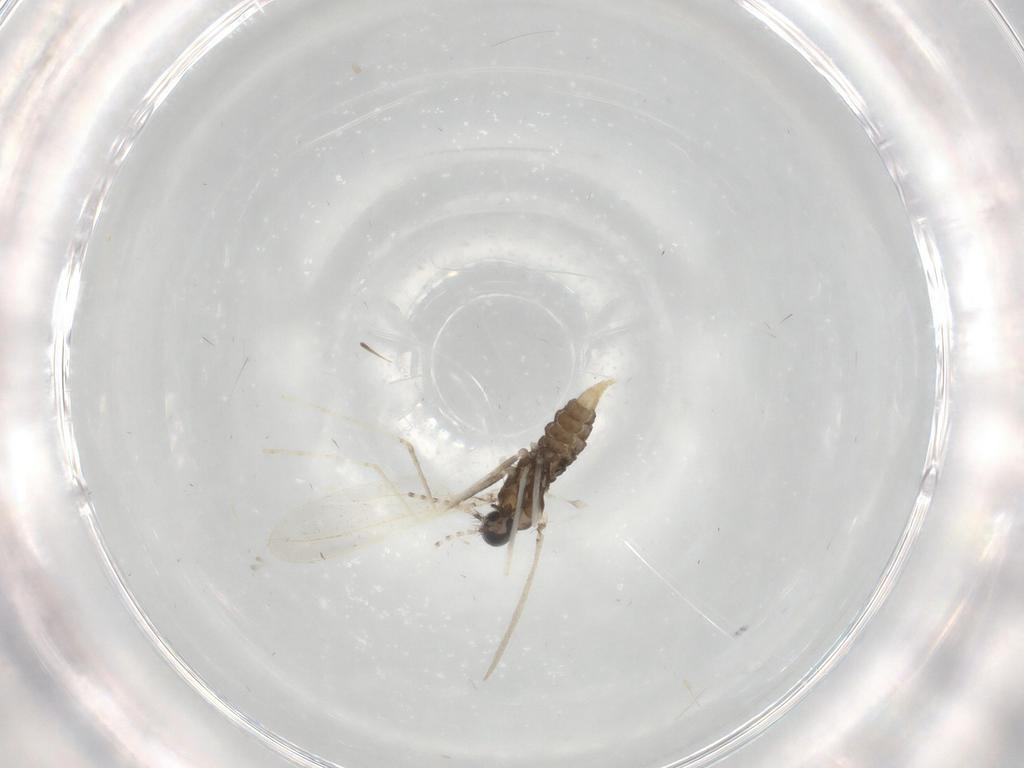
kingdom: Animalia
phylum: Arthropoda
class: Insecta
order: Diptera
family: Cecidomyiidae
